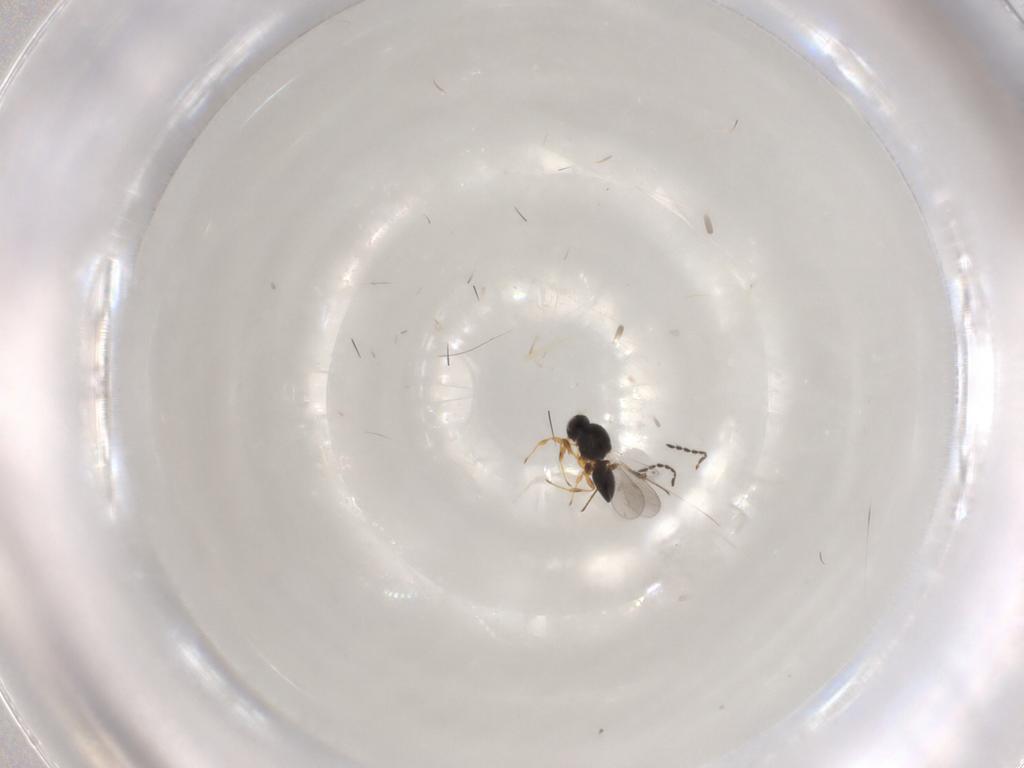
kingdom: Animalia
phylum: Arthropoda
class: Insecta
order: Hymenoptera
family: Platygastridae
